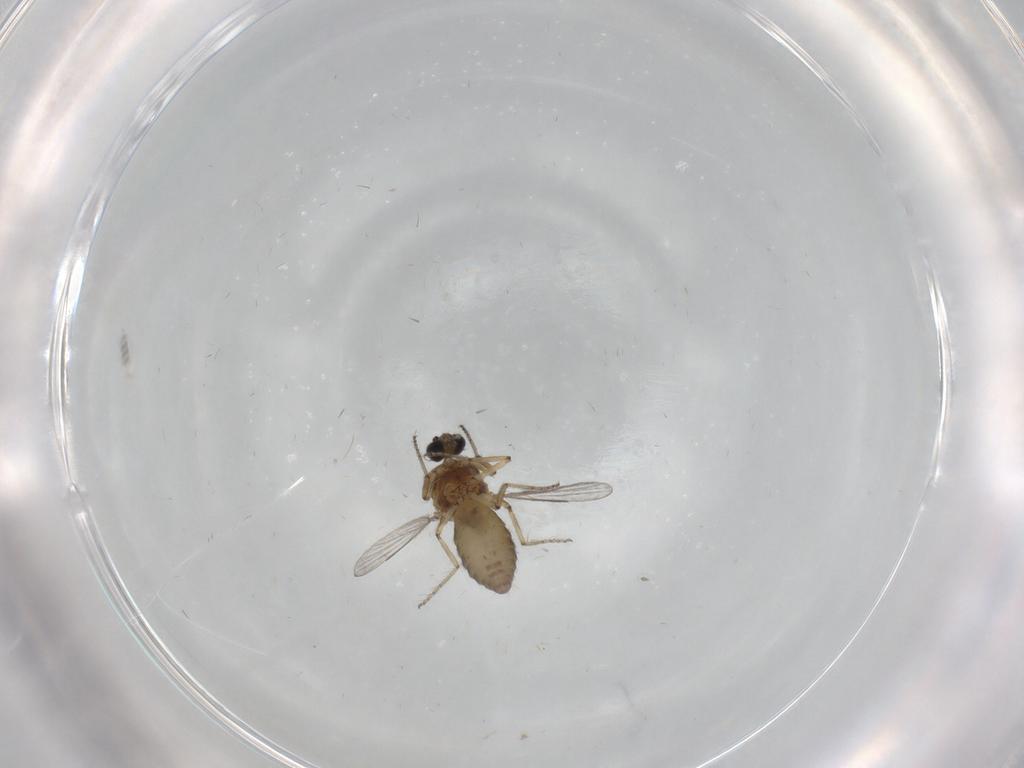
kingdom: Animalia
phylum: Arthropoda
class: Insecta
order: Diptera
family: Ceratopogonidae
